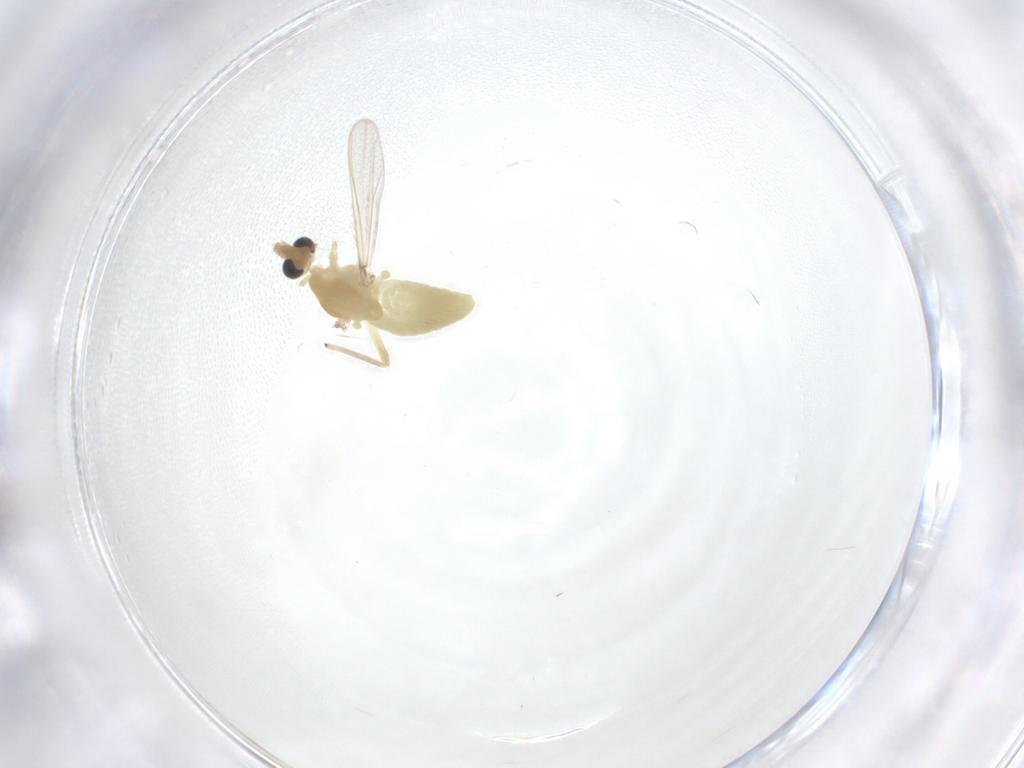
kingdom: Animalia
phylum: Arthropoda
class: Insecta
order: Diptera
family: Chironomidae
